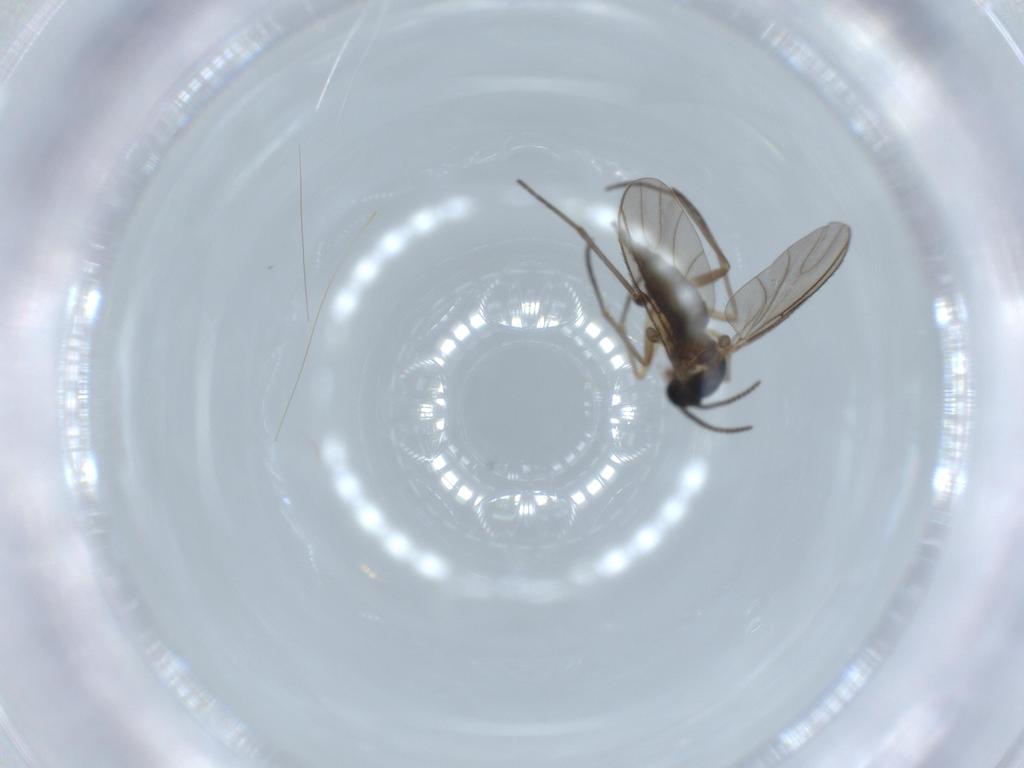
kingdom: Animalia
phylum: Arthropoda
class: Insecta
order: Diptera
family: Sciaridae
